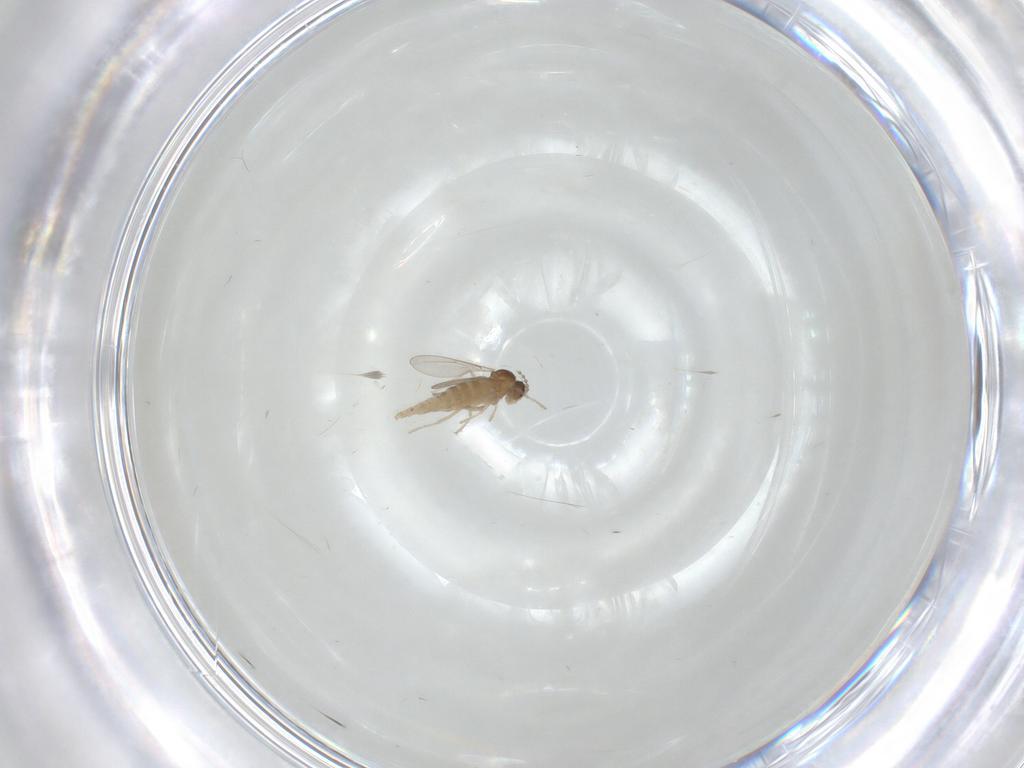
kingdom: Animalia
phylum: Arthropoda
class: Insecta
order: Diptera
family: Cecidomyiidae
